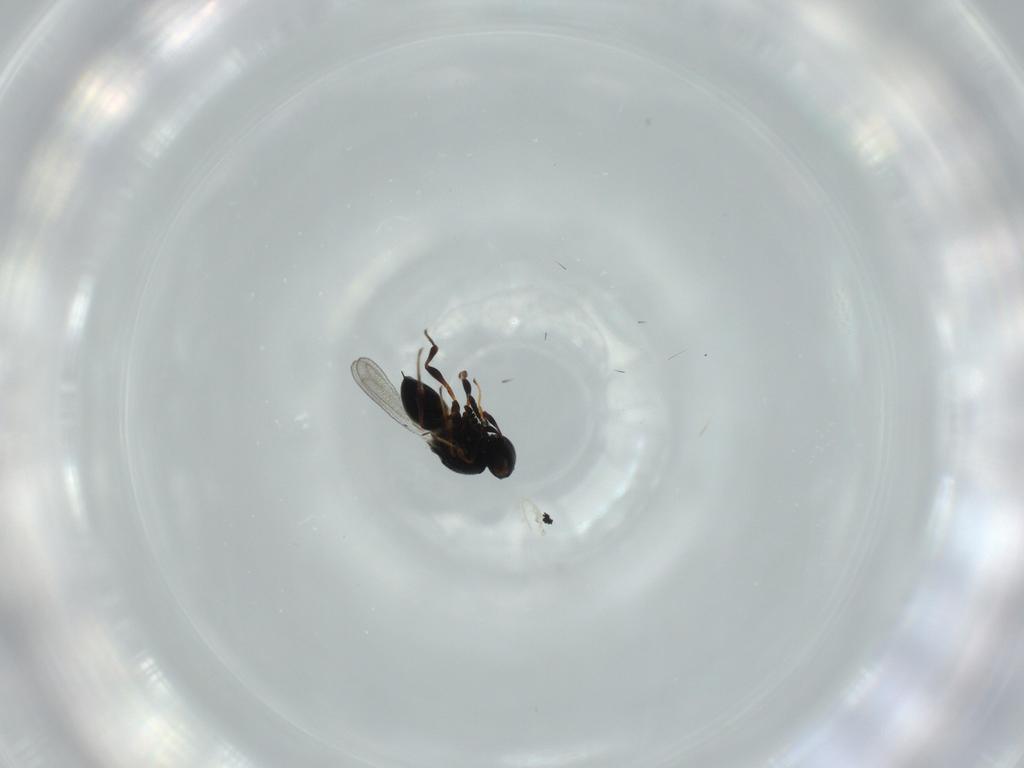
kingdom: Animalia
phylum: Arthropoda
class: Insecta
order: Hymenoptera
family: Platygastridae
